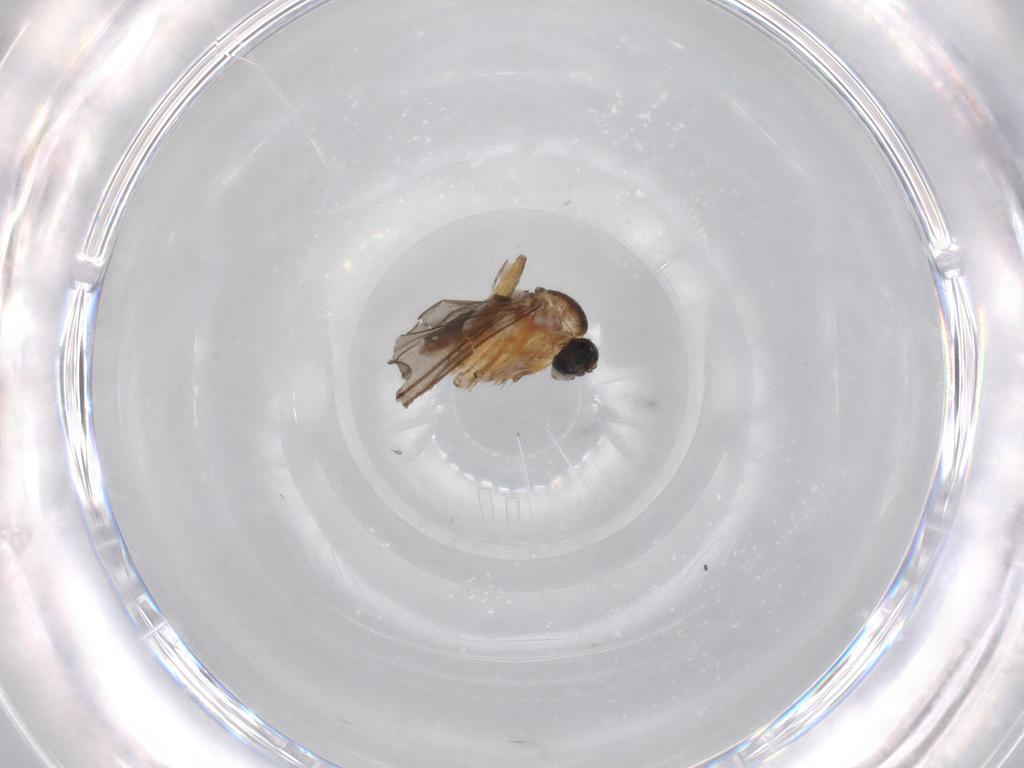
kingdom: Animalia
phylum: Arthropoda
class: Insecta
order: Diptera
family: Sciaridae
